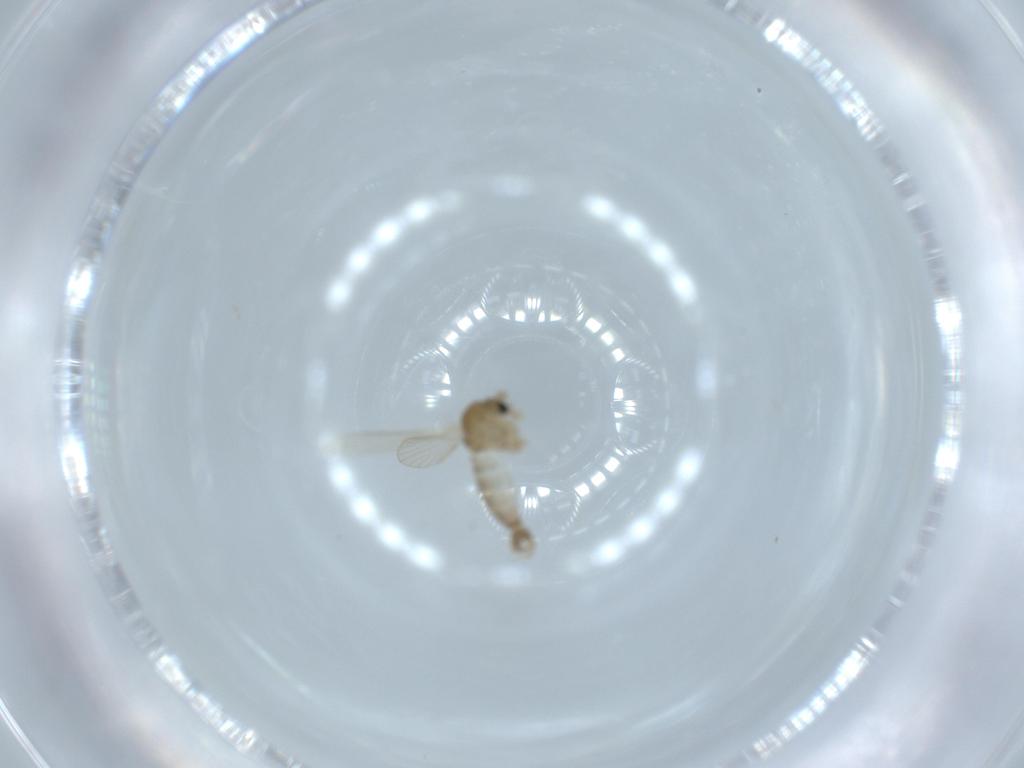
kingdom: Animalia
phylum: Arthropoda
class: Insecta
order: Diptera
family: Psychodidae
